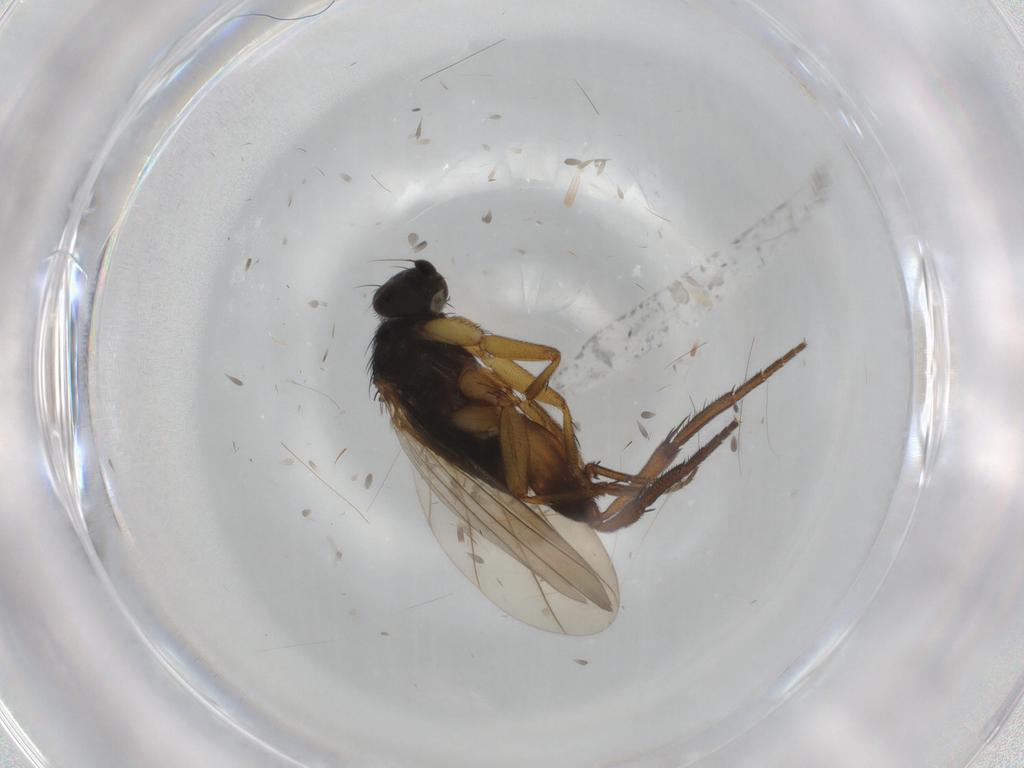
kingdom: Animalia
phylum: Arthropoda
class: Insecta
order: Diptera
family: Phoridae
